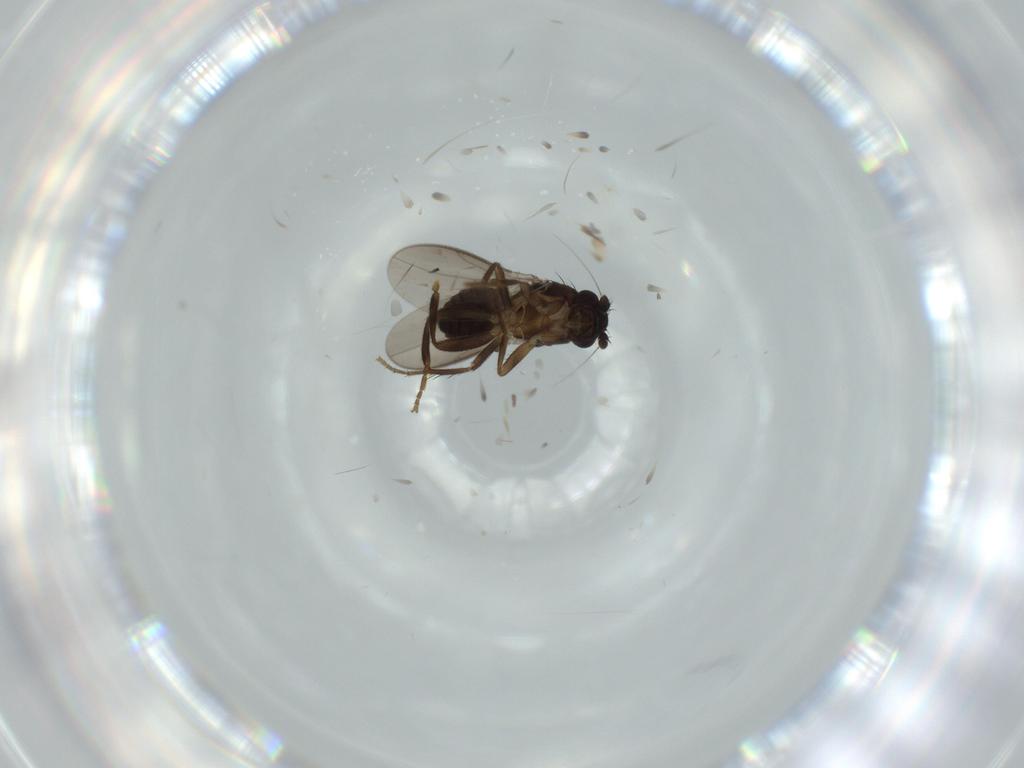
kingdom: Animalia
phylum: Arthropoda
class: Insecta
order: Diptera
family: Sphaeroceridae
